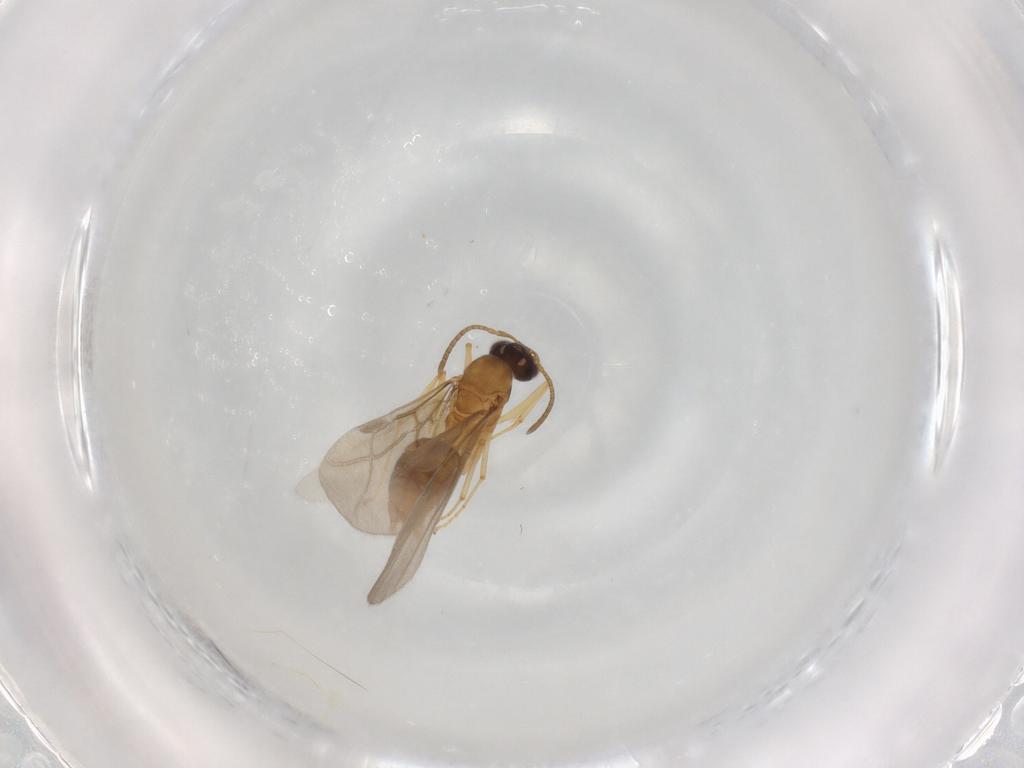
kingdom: Animalia
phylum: Arthropoda
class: Insecta
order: Hymenoptera
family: Formicidae
